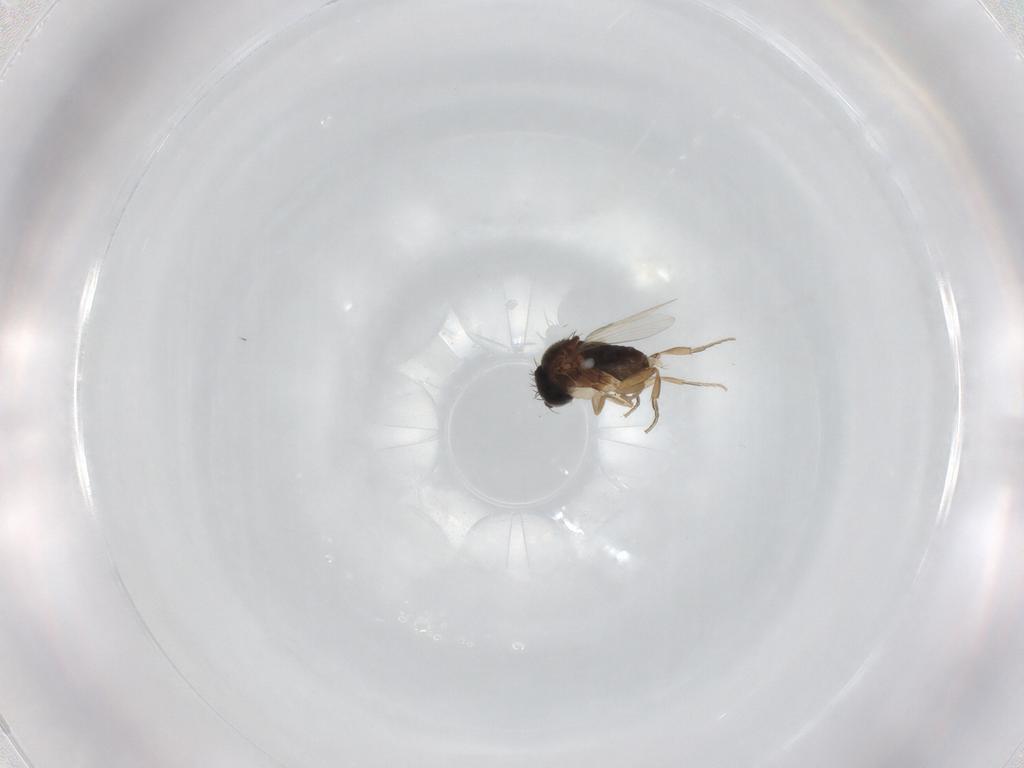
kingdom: Animalia
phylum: Arthropoda
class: Insecta
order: Diptera
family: Phoridae
